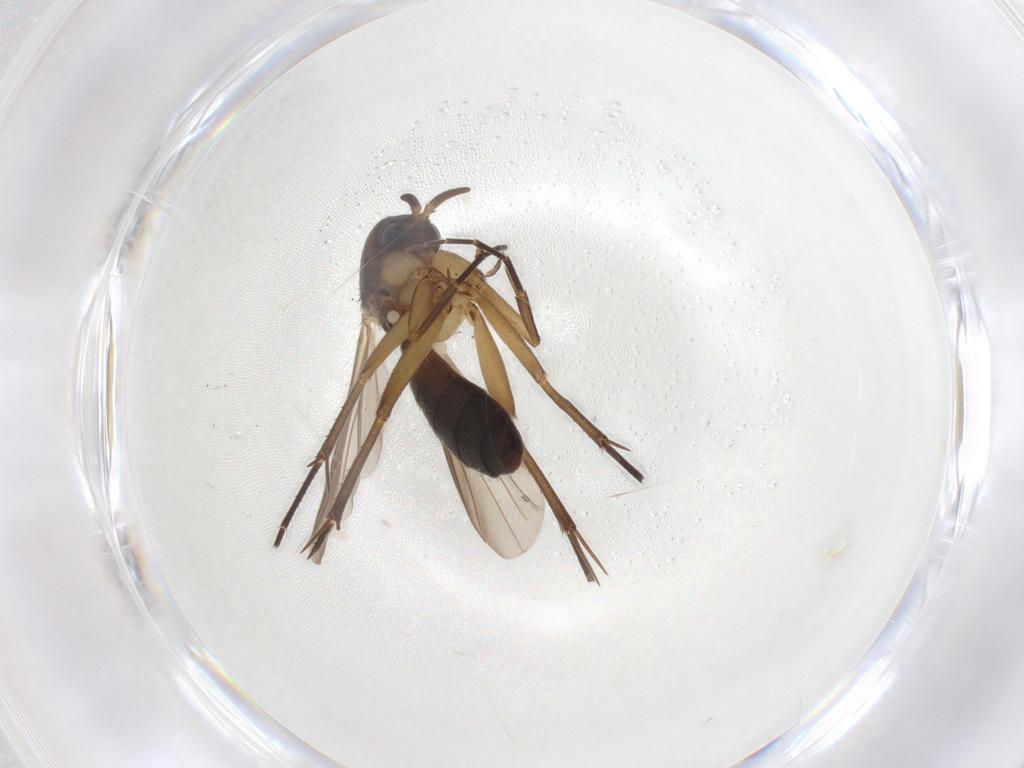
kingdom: Animalia
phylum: Arthropoda
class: Insecta
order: Diptera
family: Mycetophilidae
